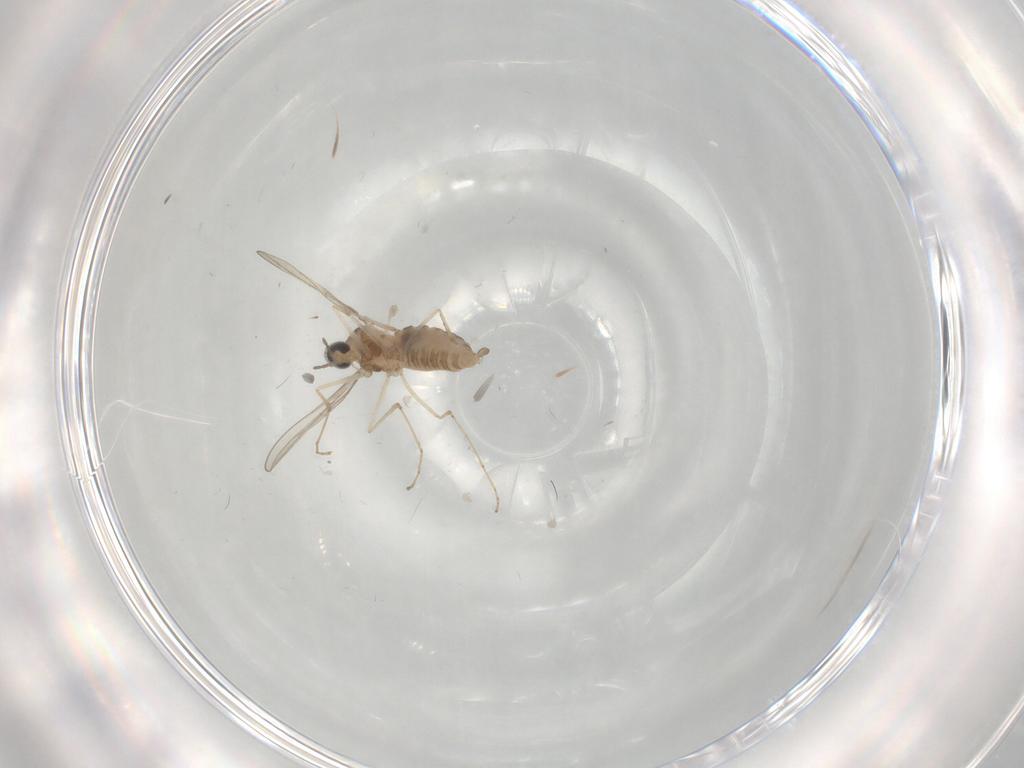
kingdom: Animalia
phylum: Arthropoda
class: Insecta
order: Diptera
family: Cecidomyiidae
